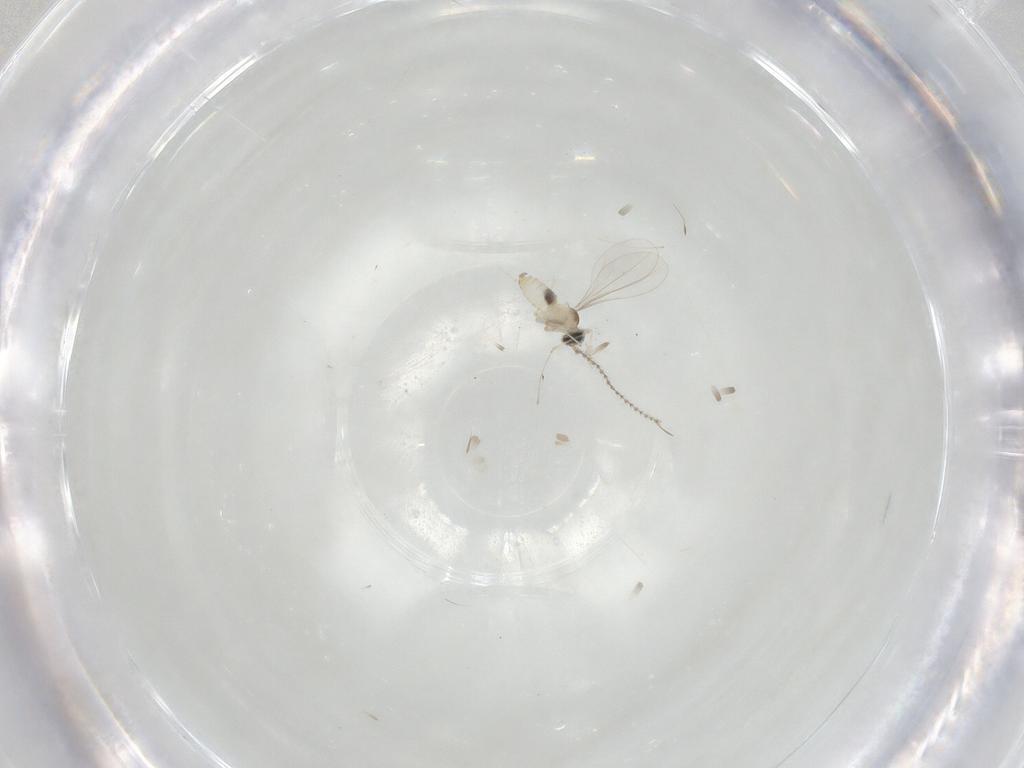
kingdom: Animalia
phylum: Arthropoda
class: Insecta
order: Diptera
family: Cecidomyiidae
